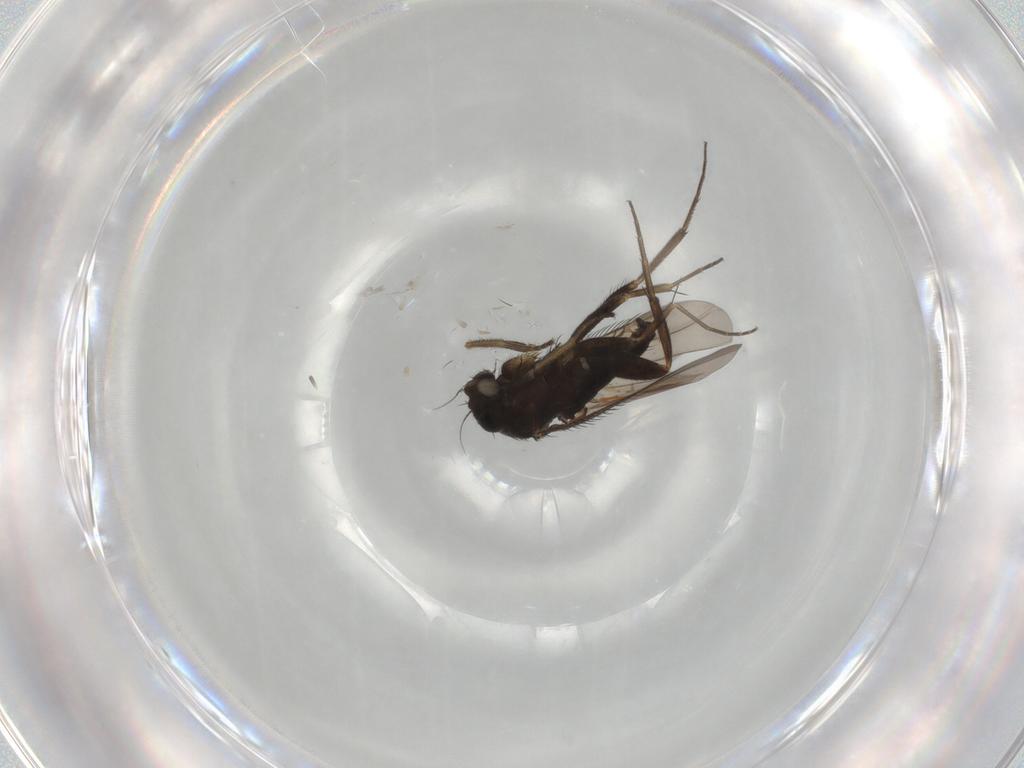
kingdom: Animalia
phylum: Arthropoda
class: Insecta
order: Diptera
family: Phoridae
